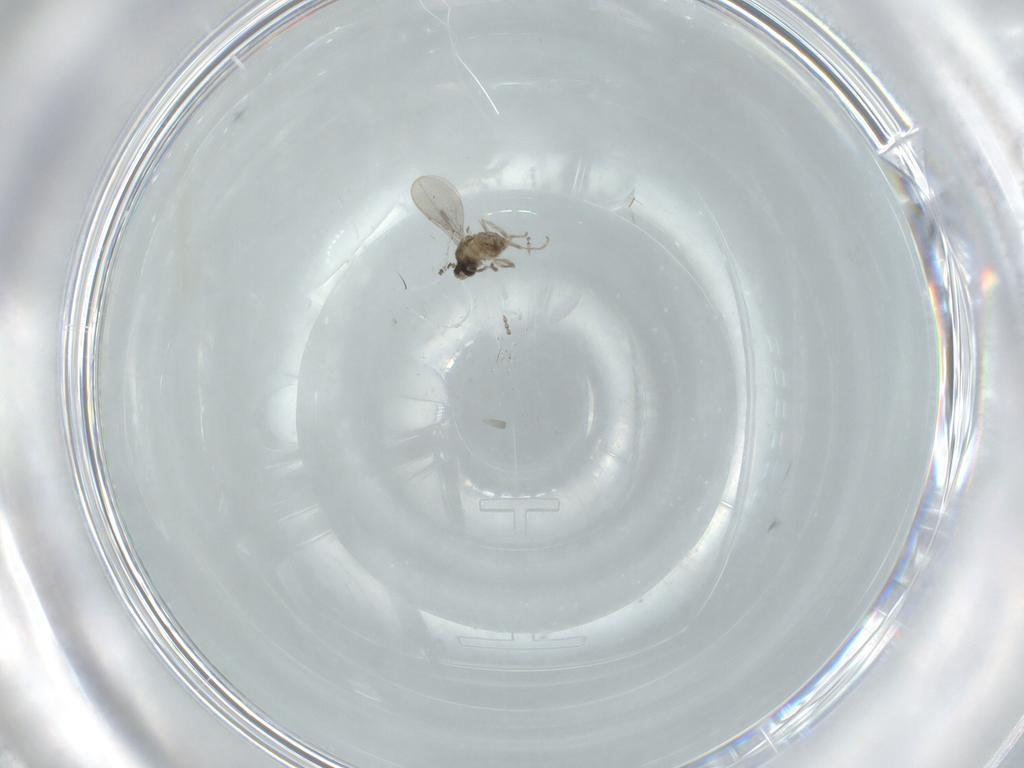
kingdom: Animalia
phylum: Arthropoda
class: Insecta
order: Diptera
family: Cecidomyiidae
